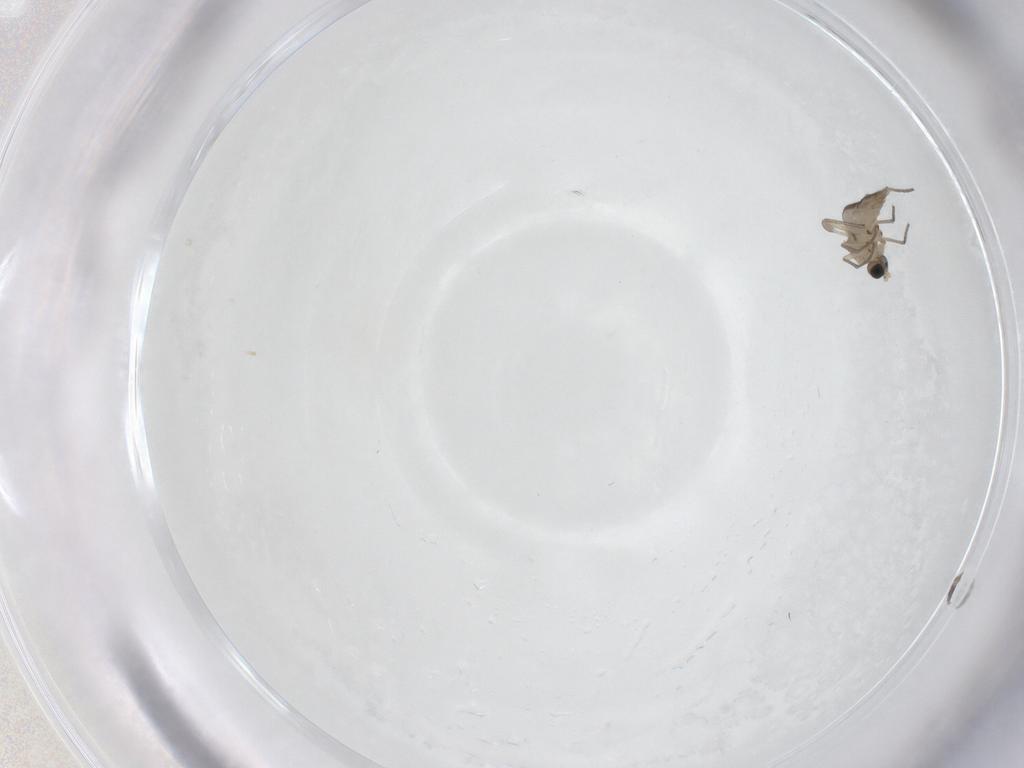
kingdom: Animalia
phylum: Arthropoda
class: Insecta
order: Diptera
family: Sciaridae
